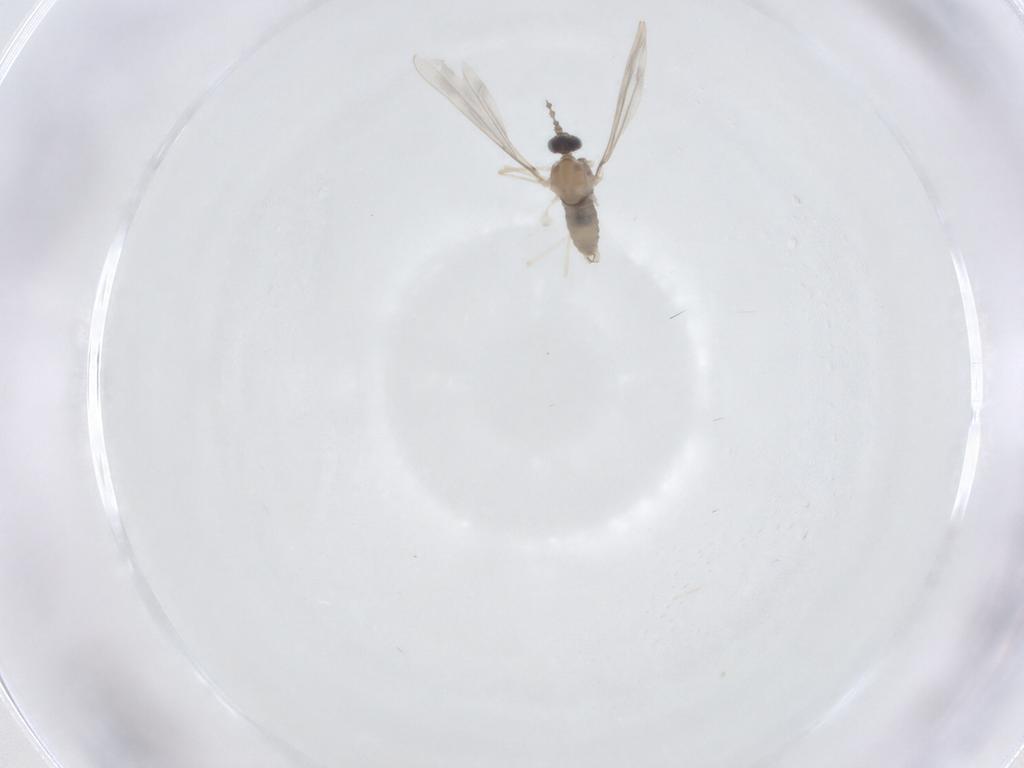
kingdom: Animalia
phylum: Arthropoda
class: Insecta
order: Diptera
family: Cecidomyiidae
